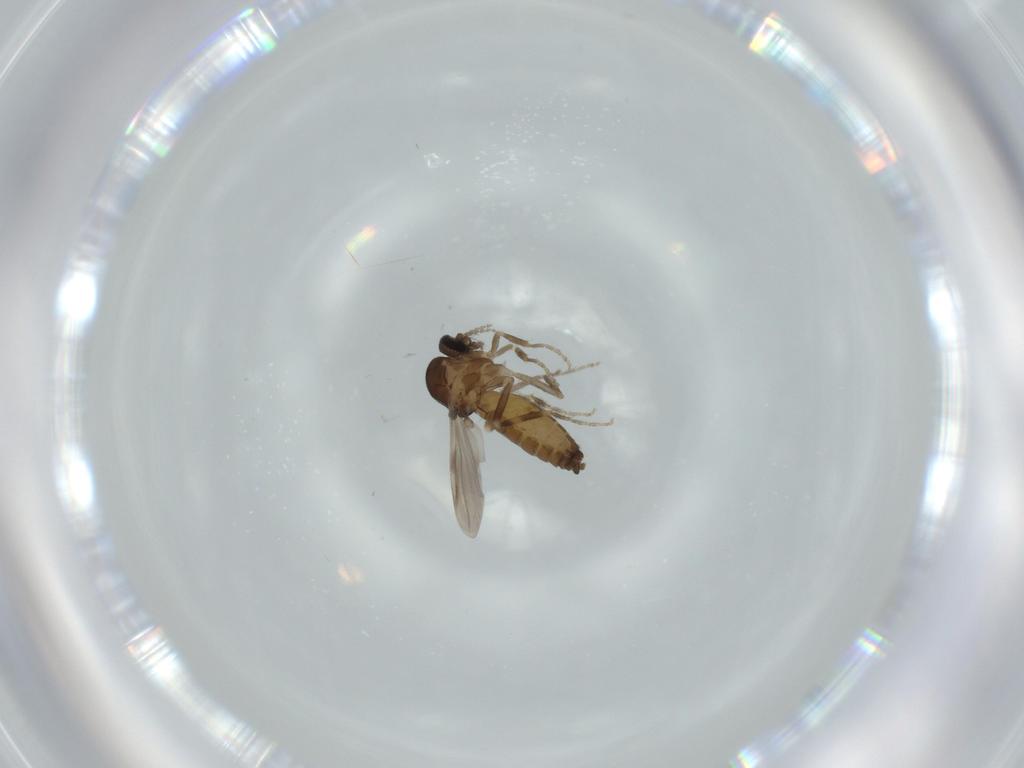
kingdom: Animalia
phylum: Arthropoda
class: Insecta
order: Diptera
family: Ceratopogonidae
